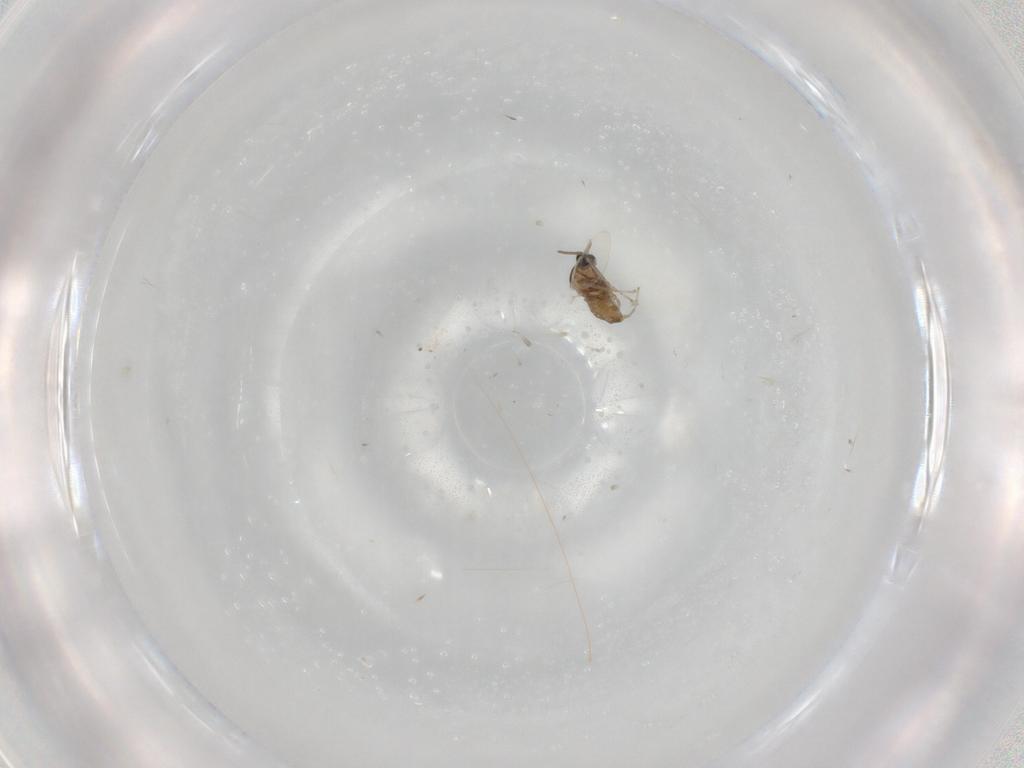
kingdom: Animalia
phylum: Arthropoda
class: Insecta
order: Diptera
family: Cecidomyiidae
